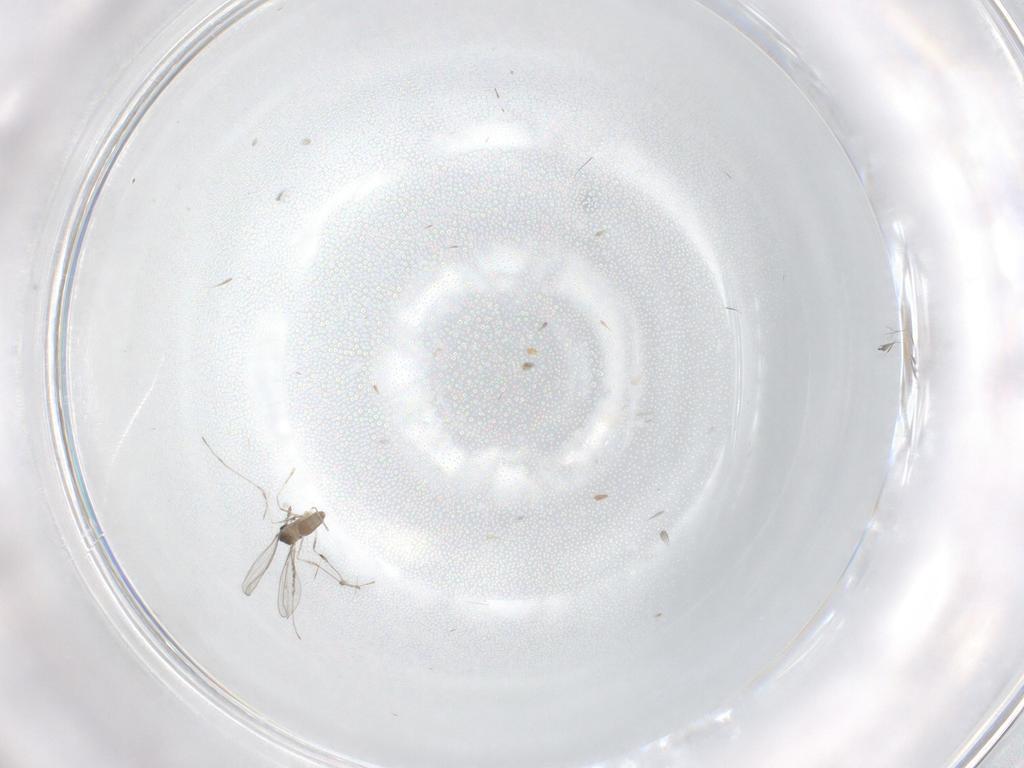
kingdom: Animalia
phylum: Arthropoda
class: Insecta
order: Diptera
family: Cecidomyiidae
